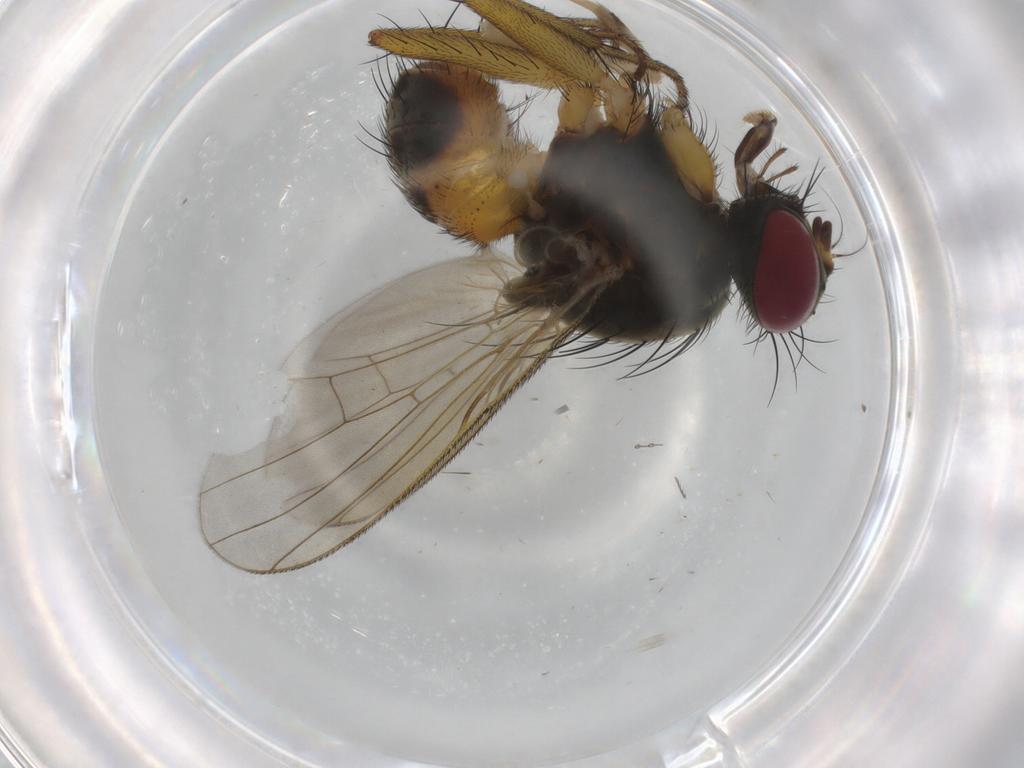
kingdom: Animalia
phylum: Arthropoda
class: Insecta
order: Diptera
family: Muscidae
